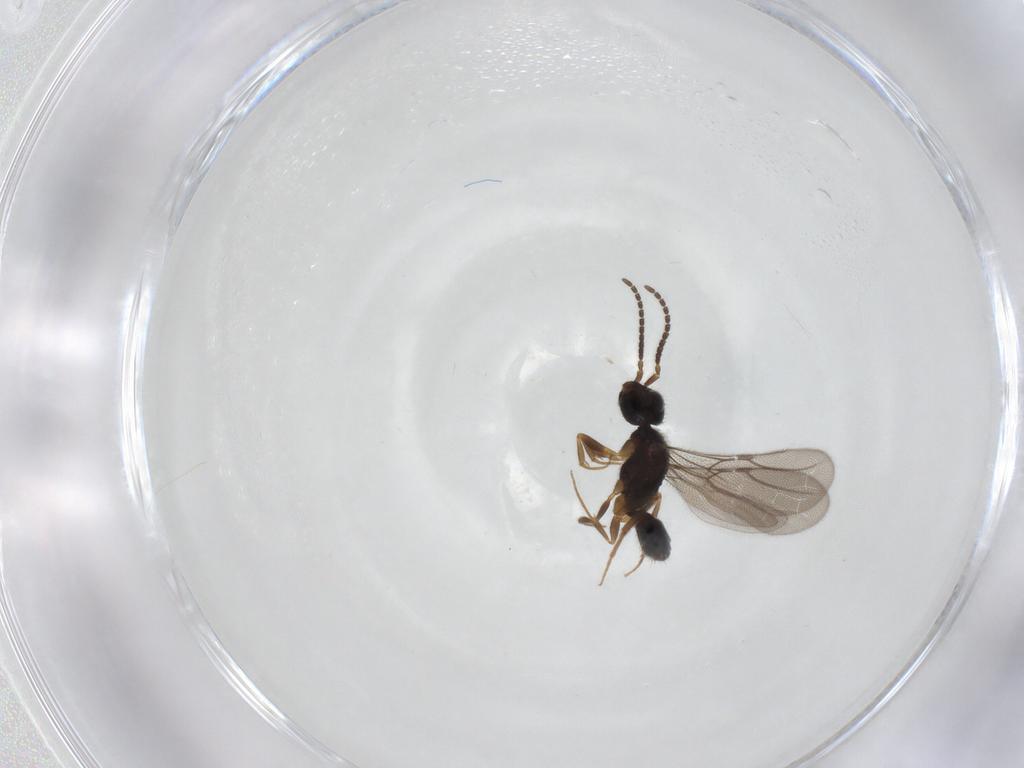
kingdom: Animalia
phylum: Arthropoda
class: Insecta
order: Hymenoptera
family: Bethylidae
